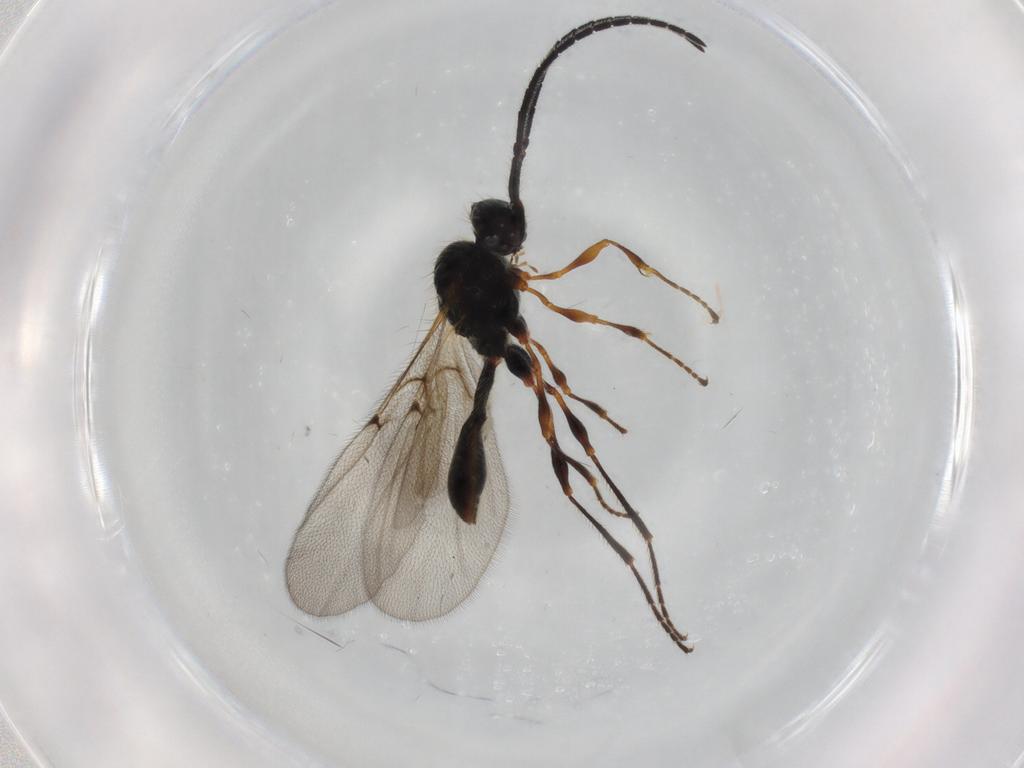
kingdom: Animalia
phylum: Arthropoda
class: Insecta
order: Hymenoptera
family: Diapriidae
